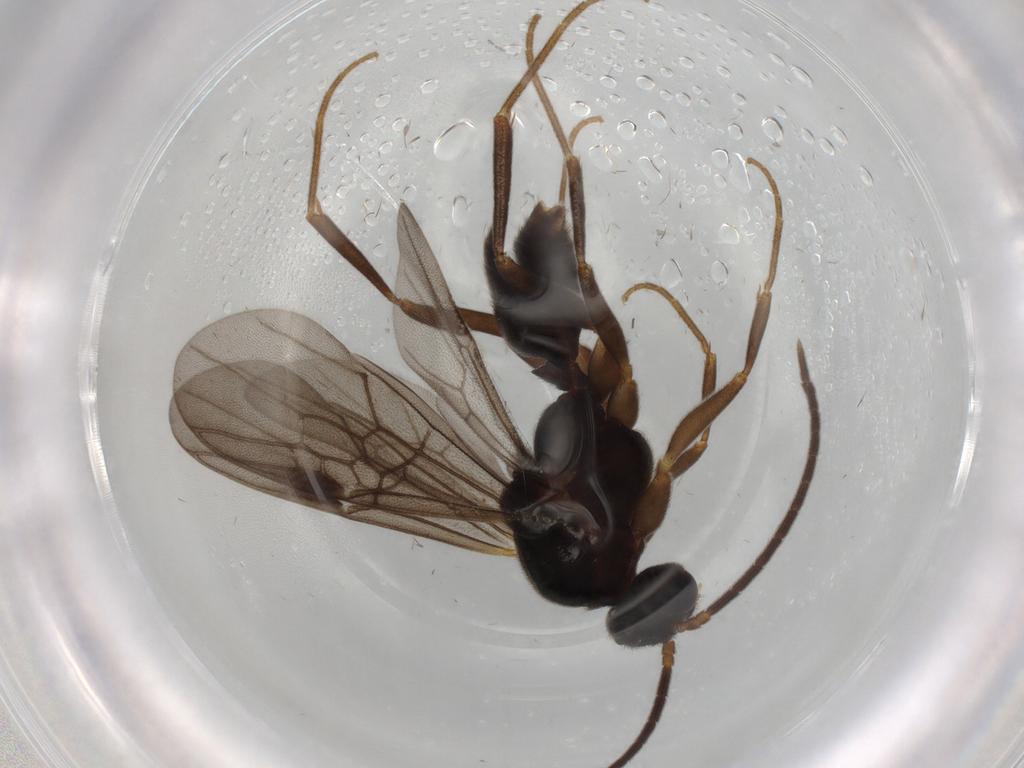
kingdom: Animalia
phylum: Arthropoda
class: Insecta
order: Hymenoptera
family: Formicidae
